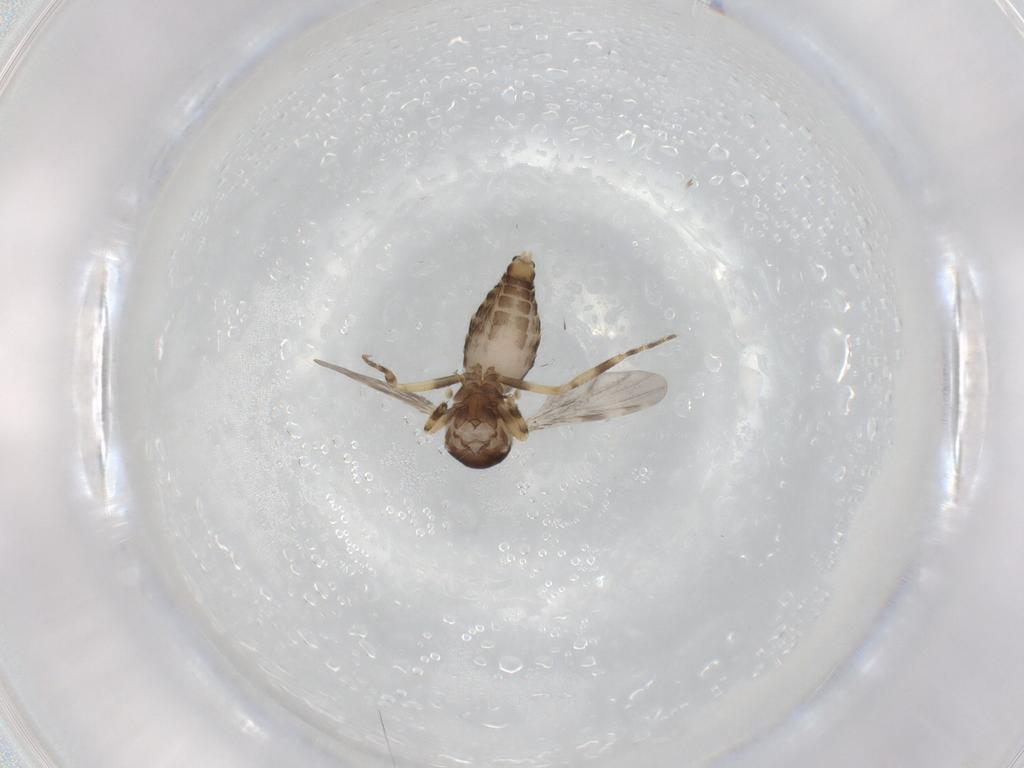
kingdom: Animalia
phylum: Arthropoda
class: Insecta
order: Diptera
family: Ceratopogonidae
